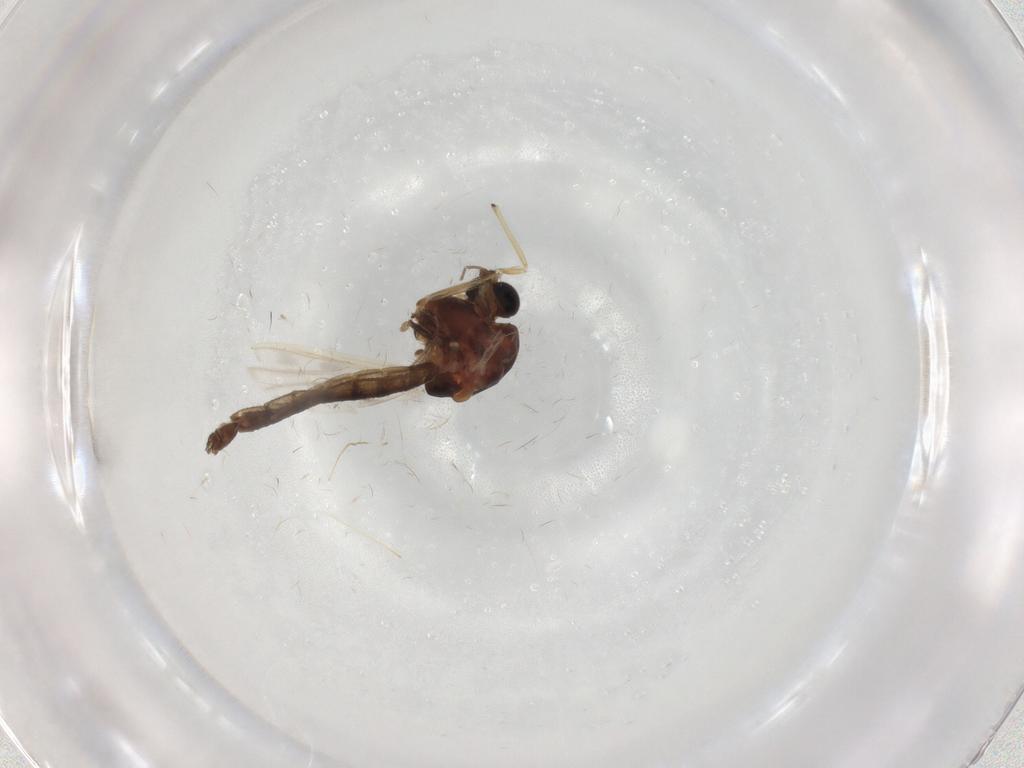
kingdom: Animalia
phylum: Arthropoda
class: Insecta
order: Diptera
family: Chironomidae
